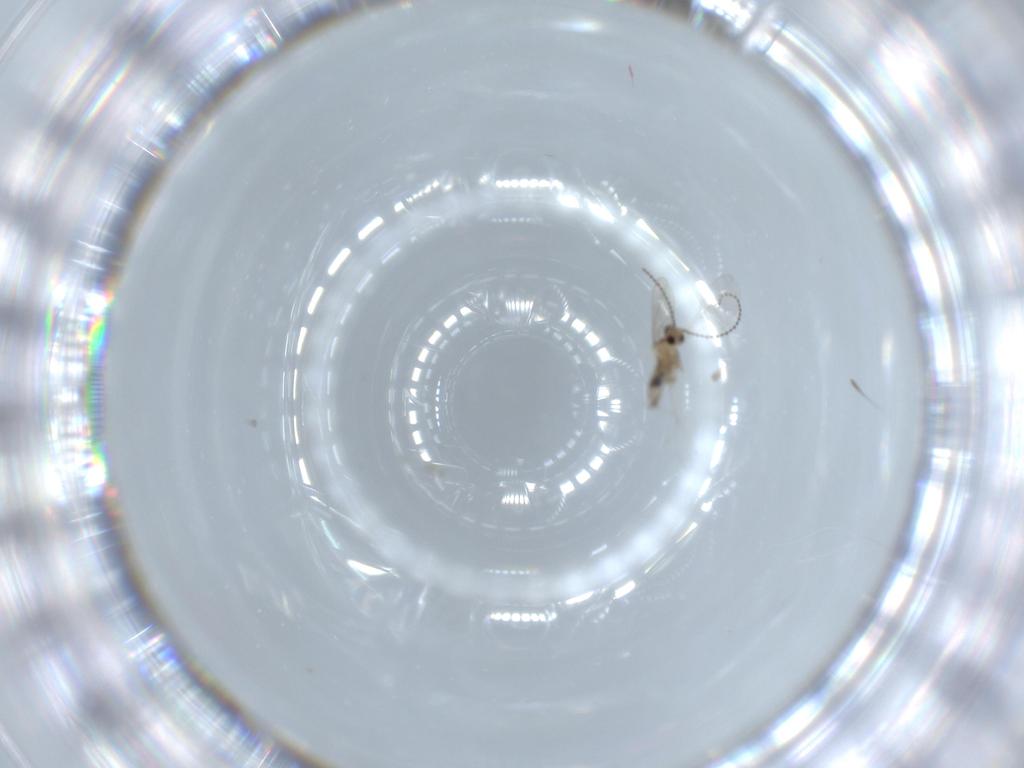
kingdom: Animalia
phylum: Arthropoda
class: Insecta
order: Diptera
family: Cecidomyiidae
